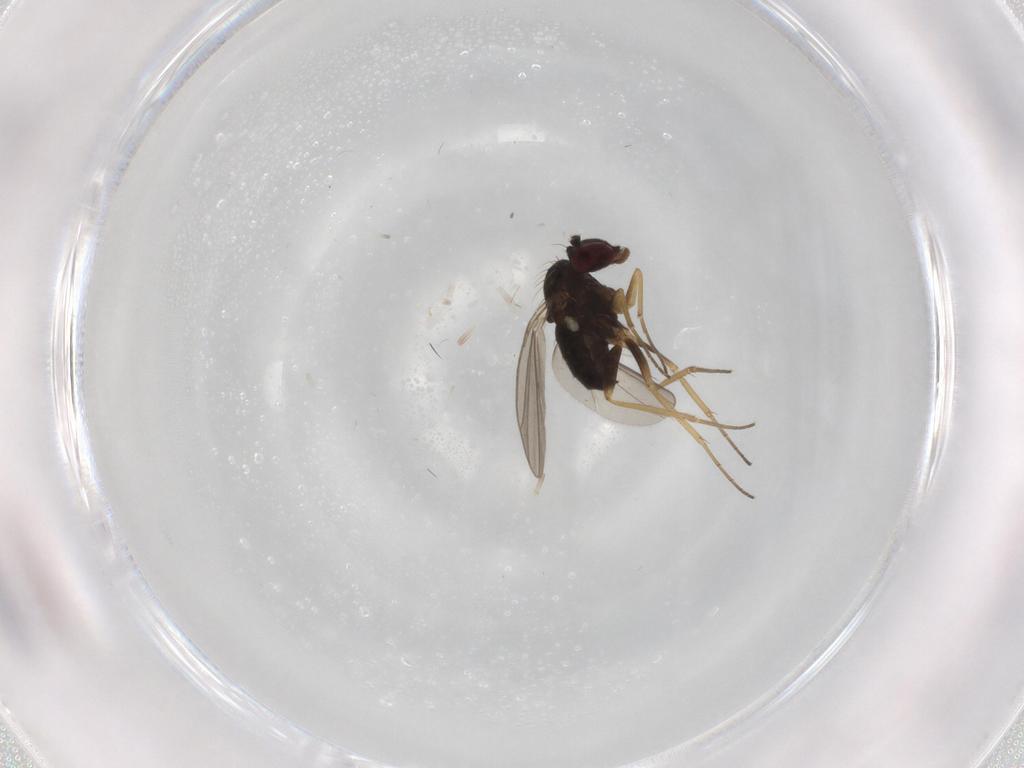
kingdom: Animalia
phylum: Arthropoda
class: Insecta
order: Diptera
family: Dolichopodidae
